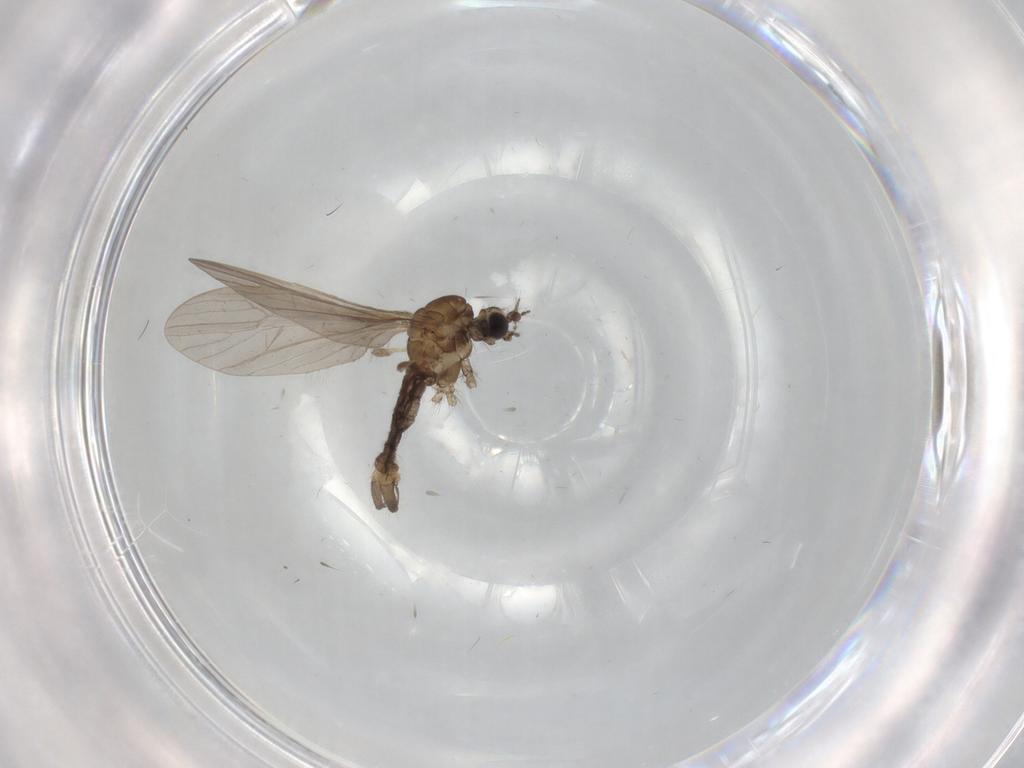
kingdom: Animalia
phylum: Arthropoda
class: Insecta
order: Diptera
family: Limoniidae
